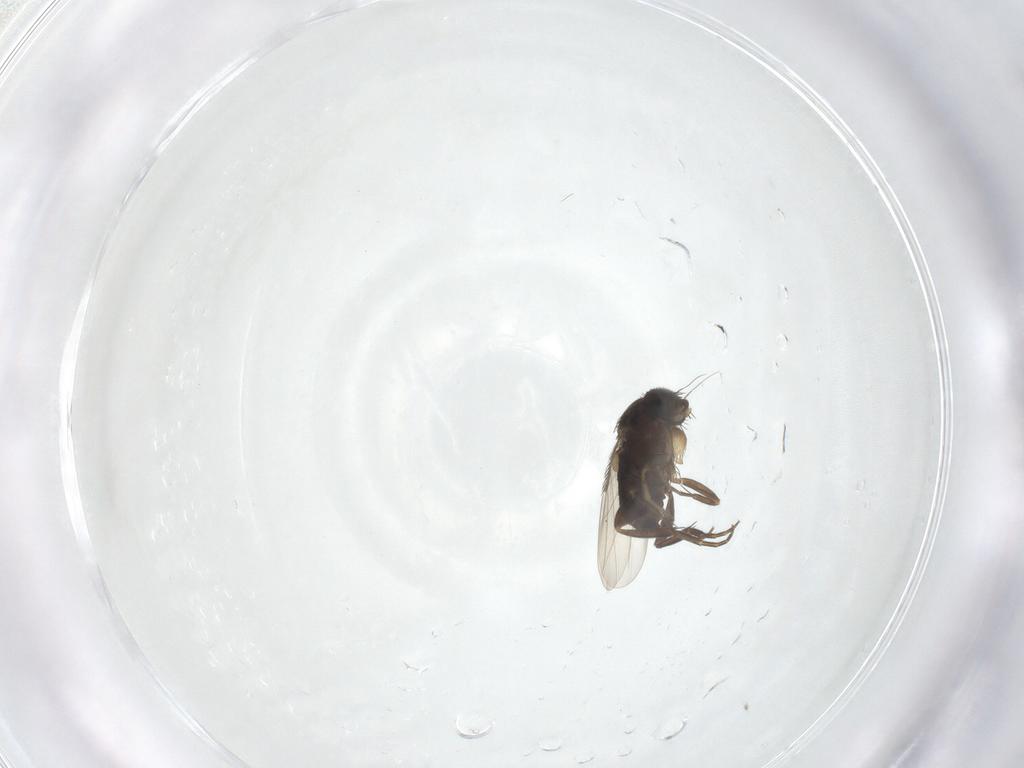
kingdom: Animalia
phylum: Arthropoda
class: Insecta
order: Diptera
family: Phoridae
